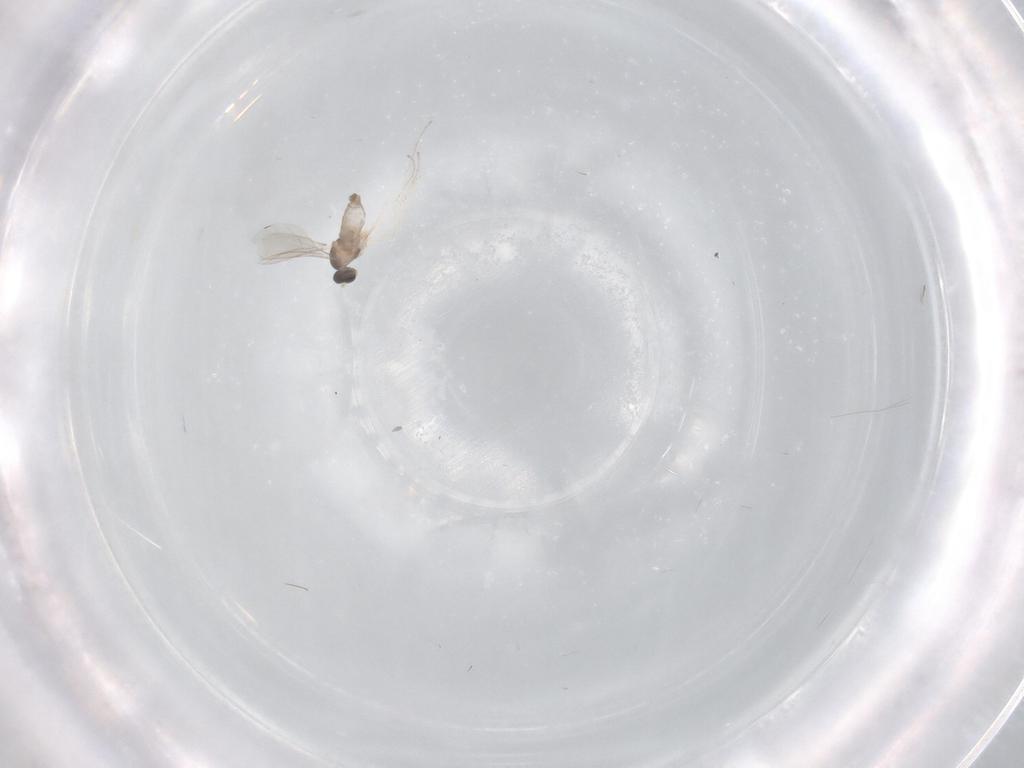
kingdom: Animalia
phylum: Arthropoda
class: Insecta
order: Diptera
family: Cecidomyiidae
